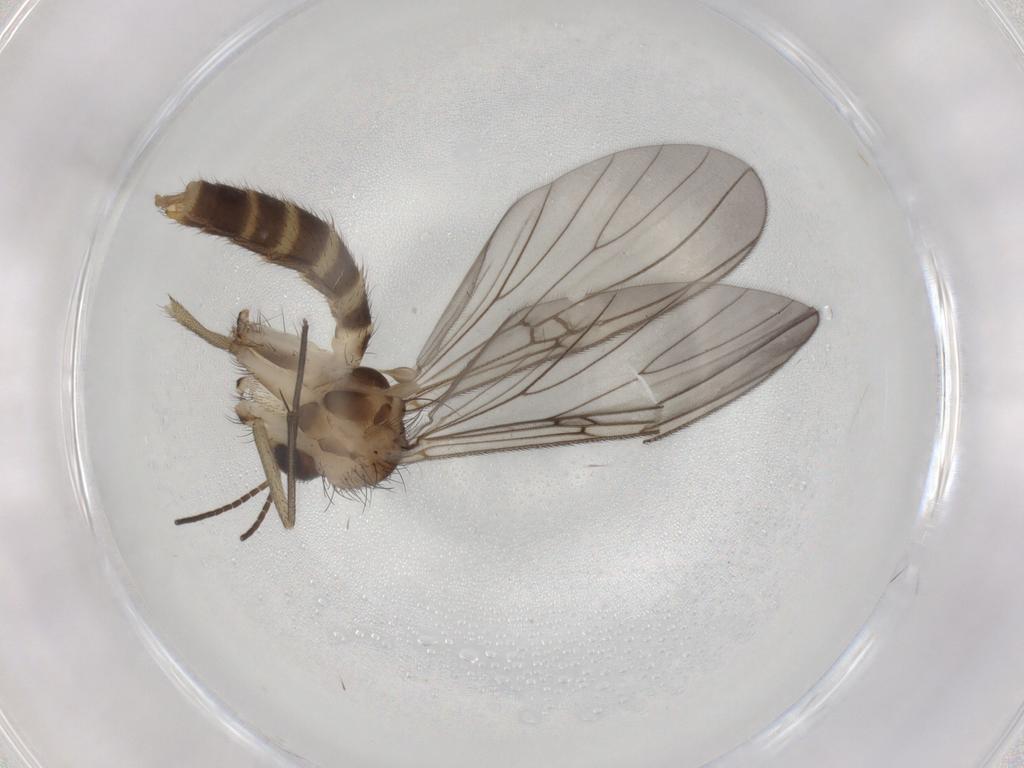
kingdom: Animalia
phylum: Arthropoda
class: Insecta
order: Diptera
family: Mycetophilidae
